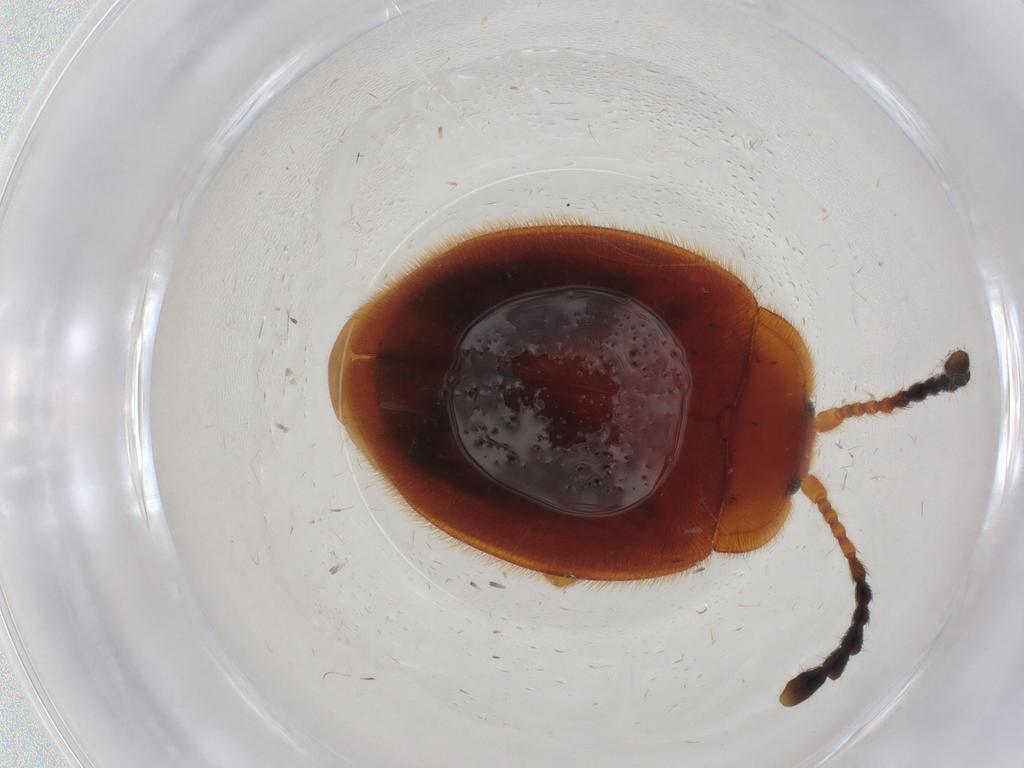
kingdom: Animalia
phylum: Arthropoda
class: Insecta
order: Coleoptera
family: Endomychidae
